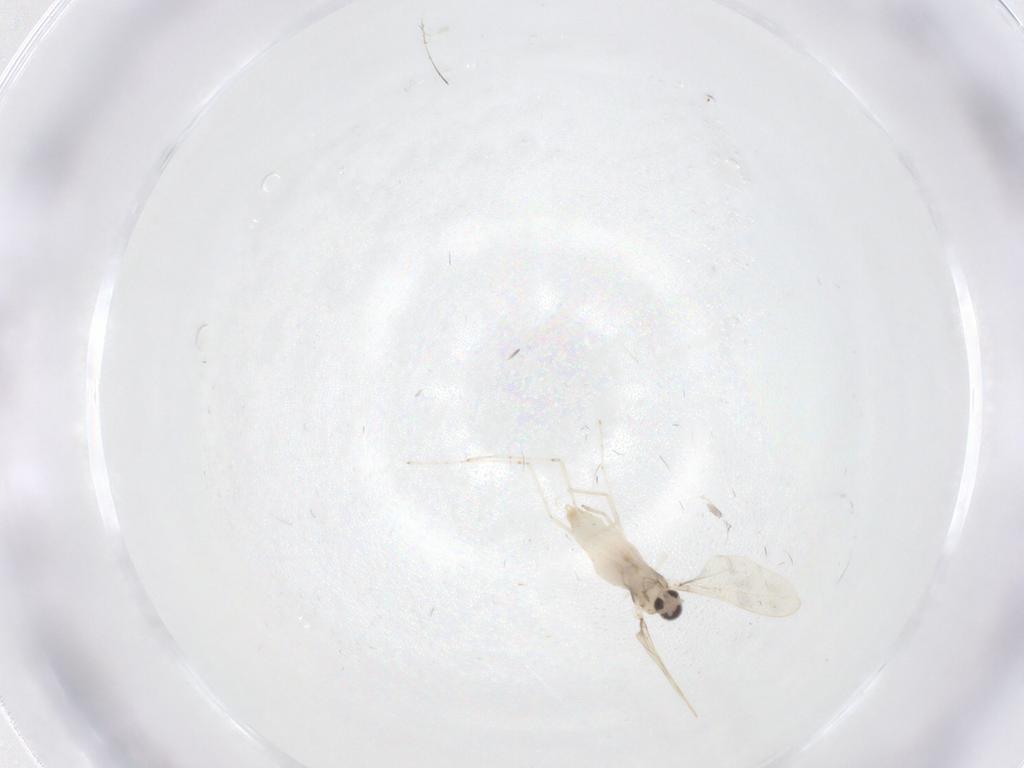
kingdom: Animalia
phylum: Arthropoda
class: Insecta
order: Diptera
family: Cecidomyiidae
